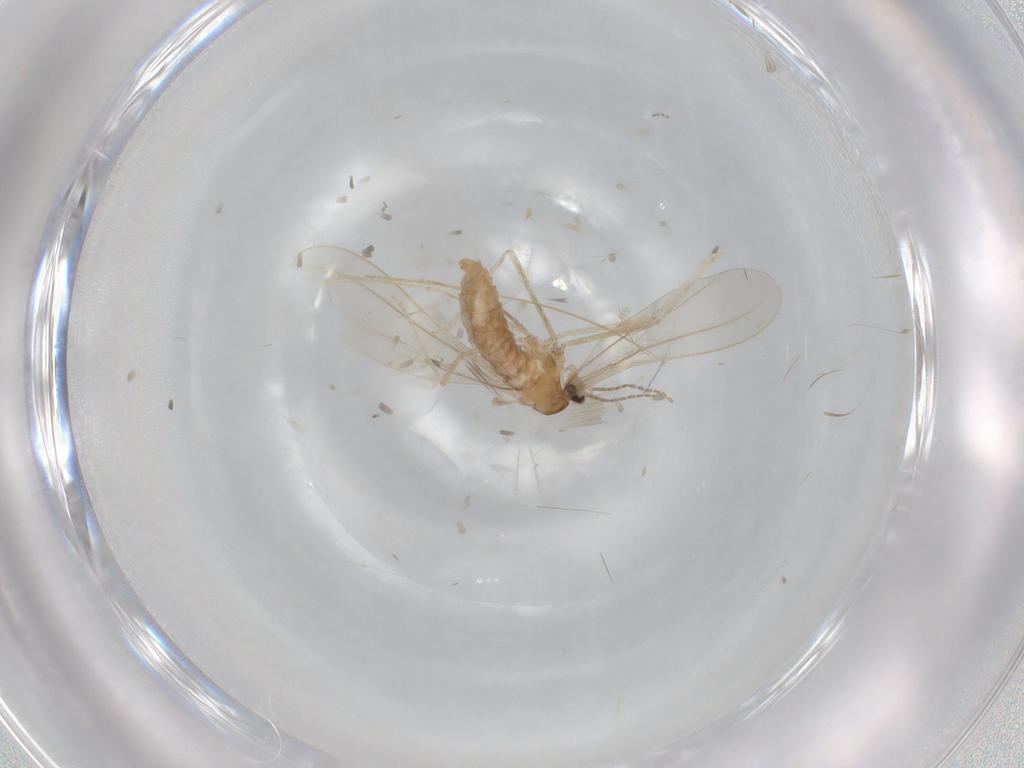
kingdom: Animalia
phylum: Arthropoda
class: Insecta
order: Diptera
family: Cecidomyiidae
